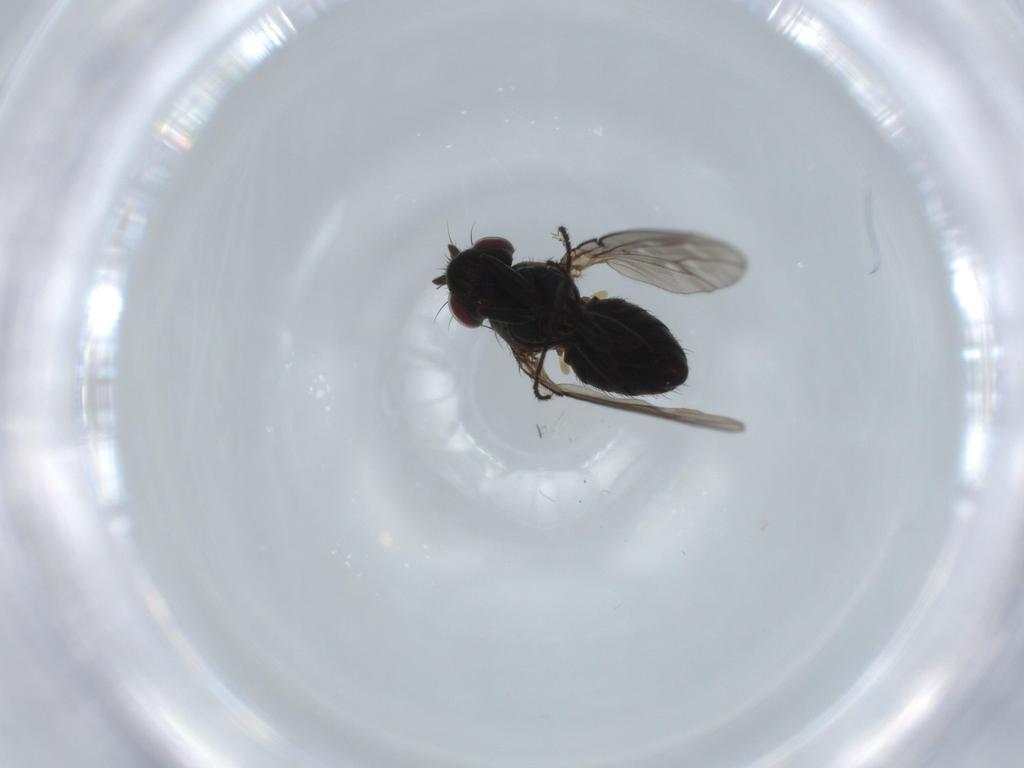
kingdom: Animalia
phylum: Arthropoda
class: Insecta
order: Diptera
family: Ephydridae
